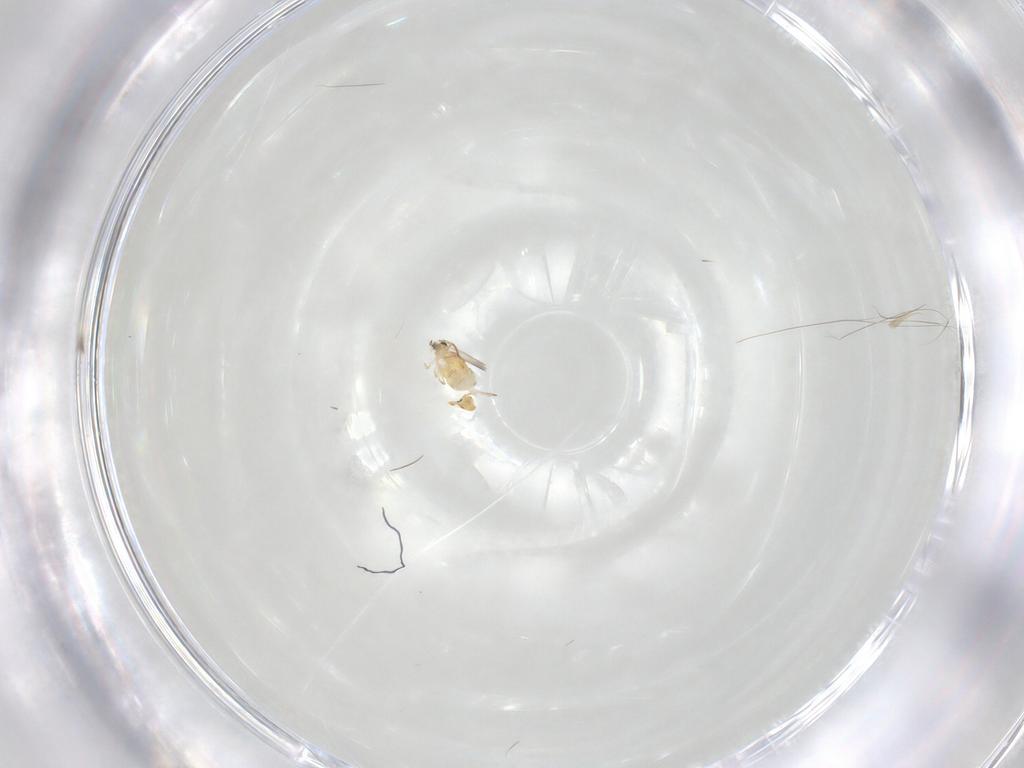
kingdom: Animalia
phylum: Arthropoda
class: Collembola
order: Symphypleona
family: Bourletiellidae
